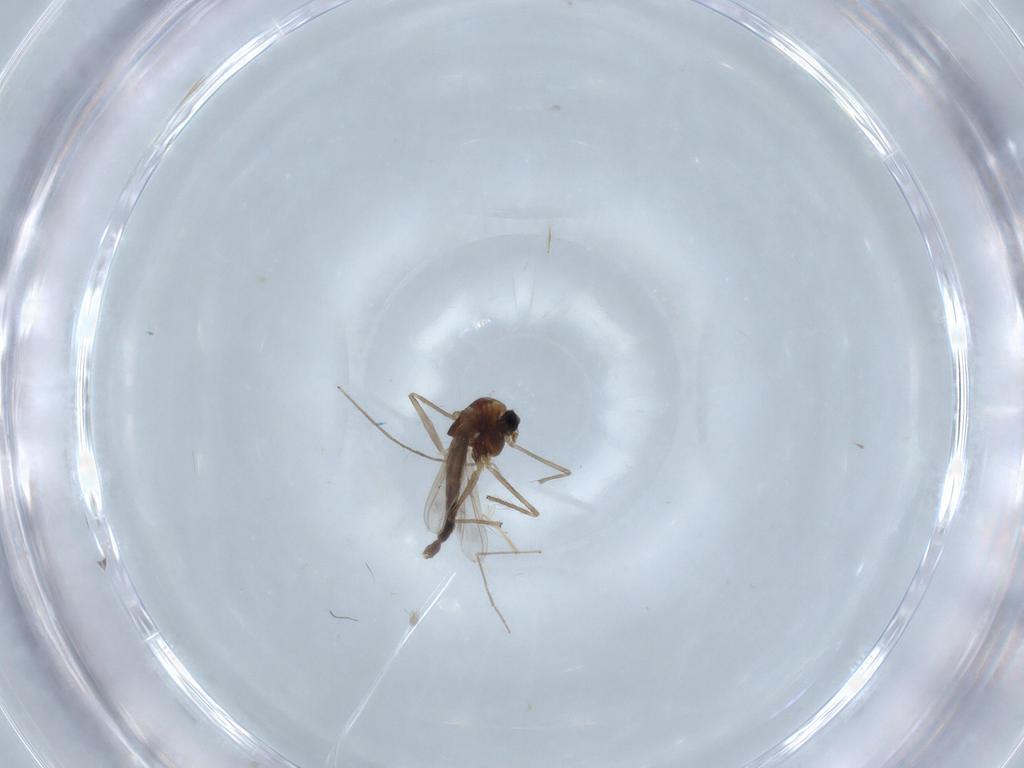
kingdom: Animalia
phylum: Arthropoda
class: Insecta
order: Diptera
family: Chironomidae
